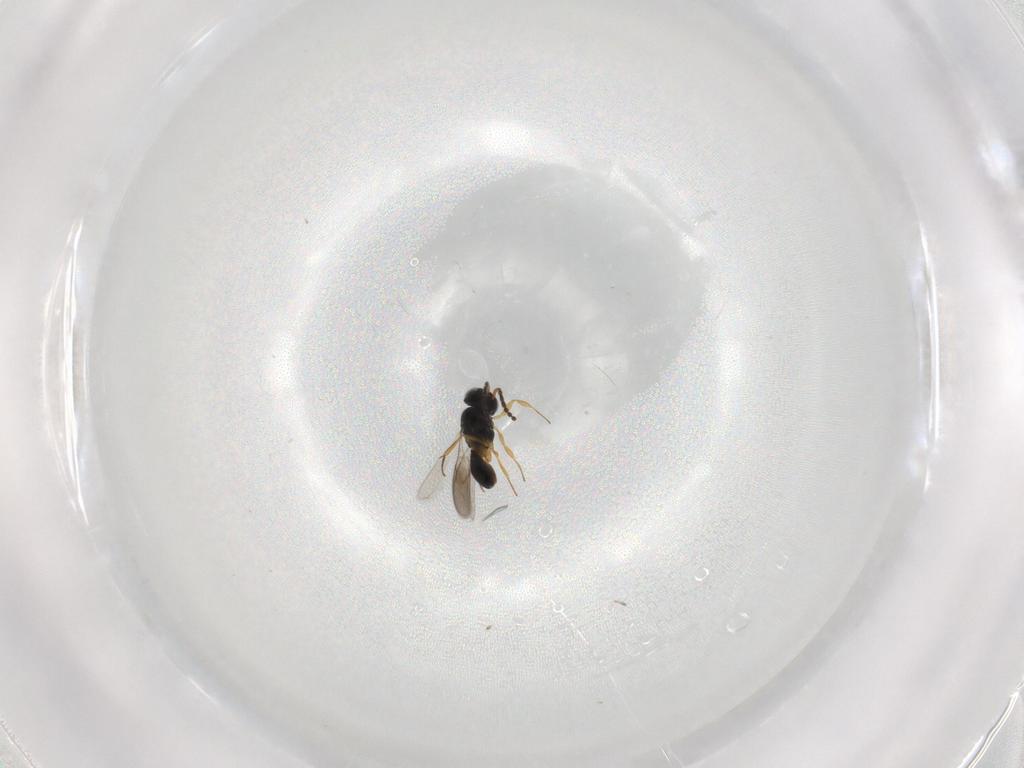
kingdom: Animalia
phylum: Arthropoda
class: Insecta
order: Hymenoptera
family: Scelionidae
